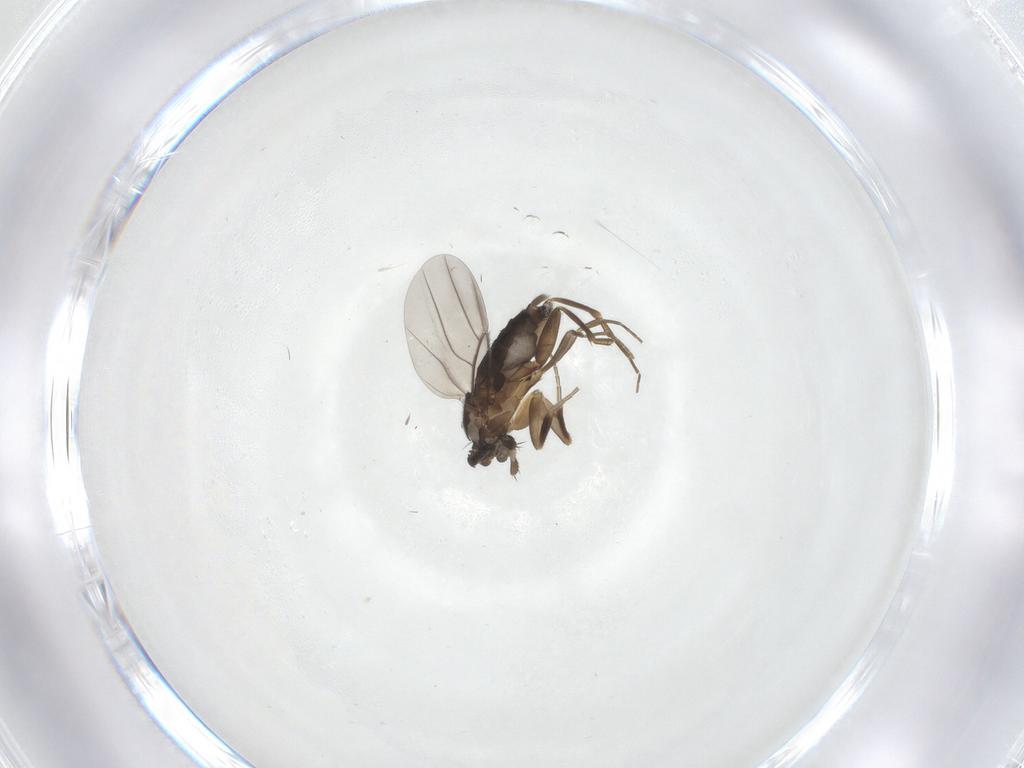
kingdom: Animalia
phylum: Arthropoda
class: Insecta
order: Diptera
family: Phoridae
